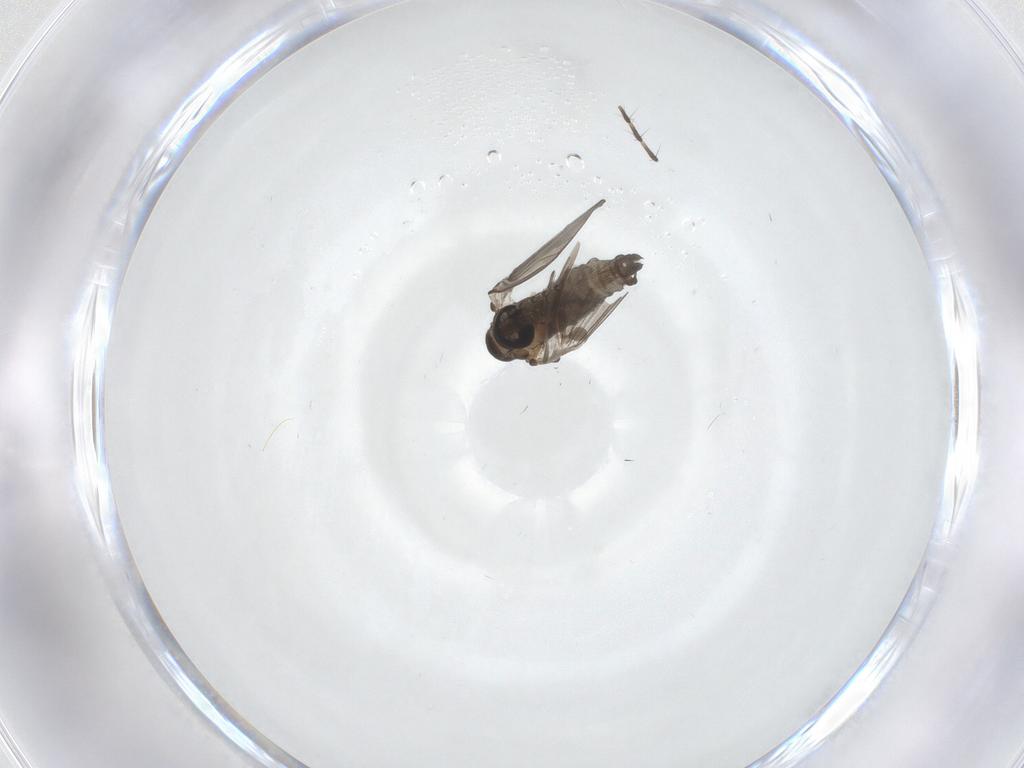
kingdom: Animalia
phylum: Arthropoda
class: Insecta
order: Diptera
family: Psychodidae
